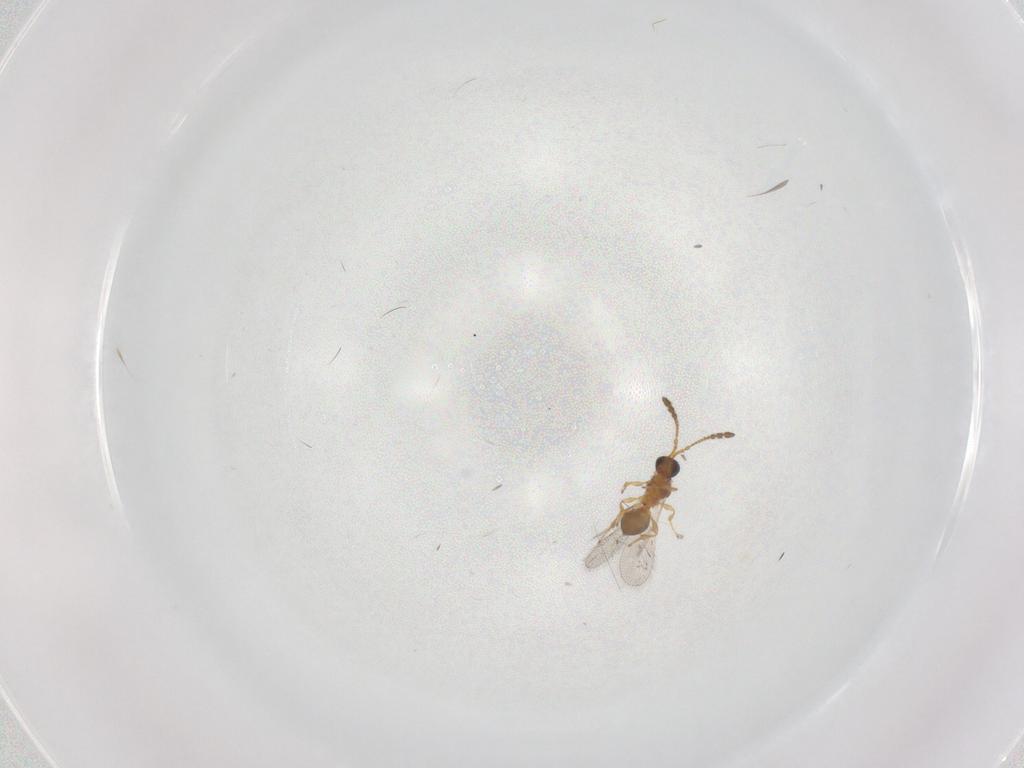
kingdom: Animalia
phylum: Arthropoda
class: Insecta
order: Hymenoptera
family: Diapriidae
